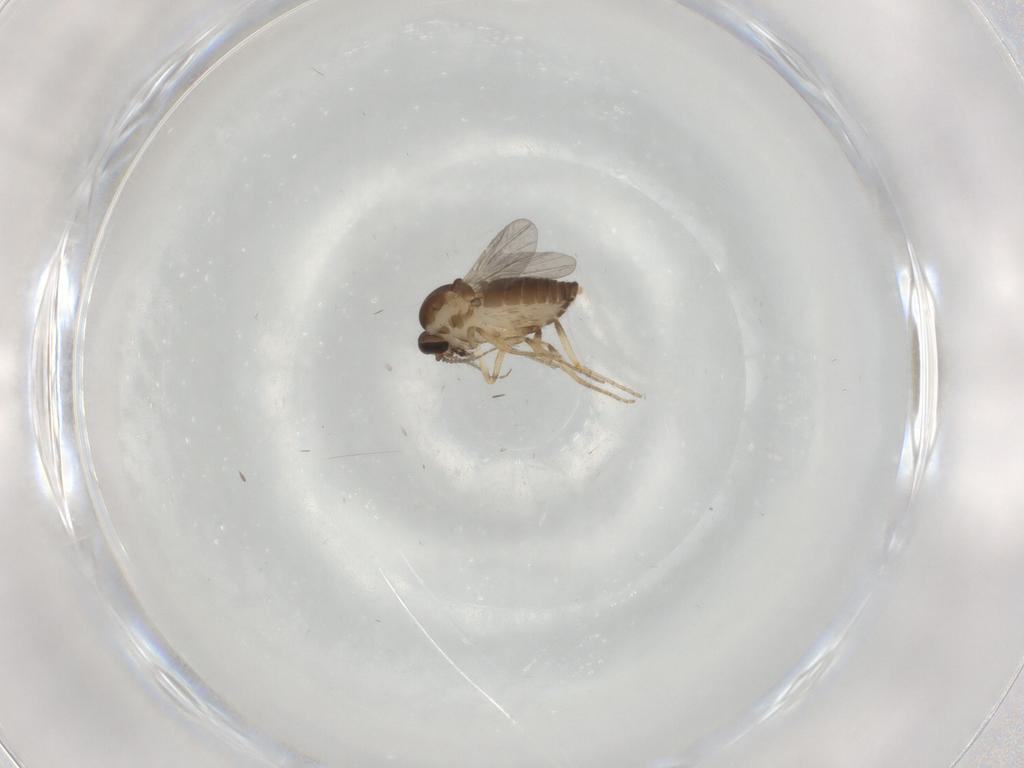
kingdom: Animalia
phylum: Arthropoda
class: Insecta
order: Diptera
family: Ceratopogonidae
